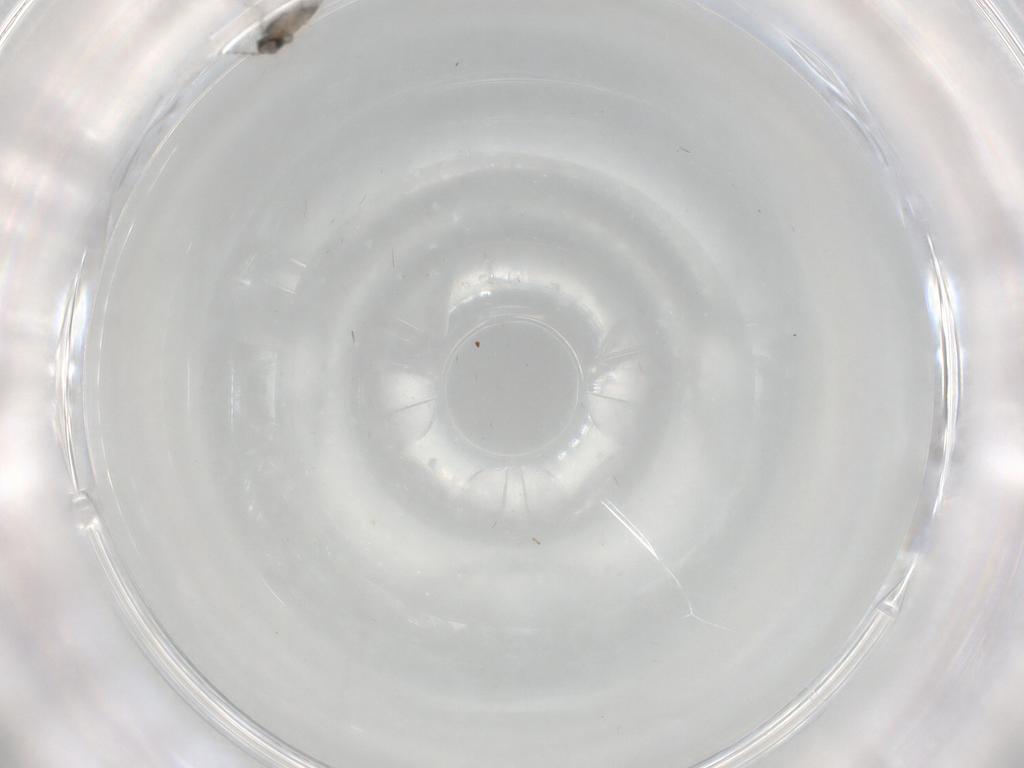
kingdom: Animalia
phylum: Arthropoda
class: Insecta
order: Diptera
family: Cecidomyiidae
